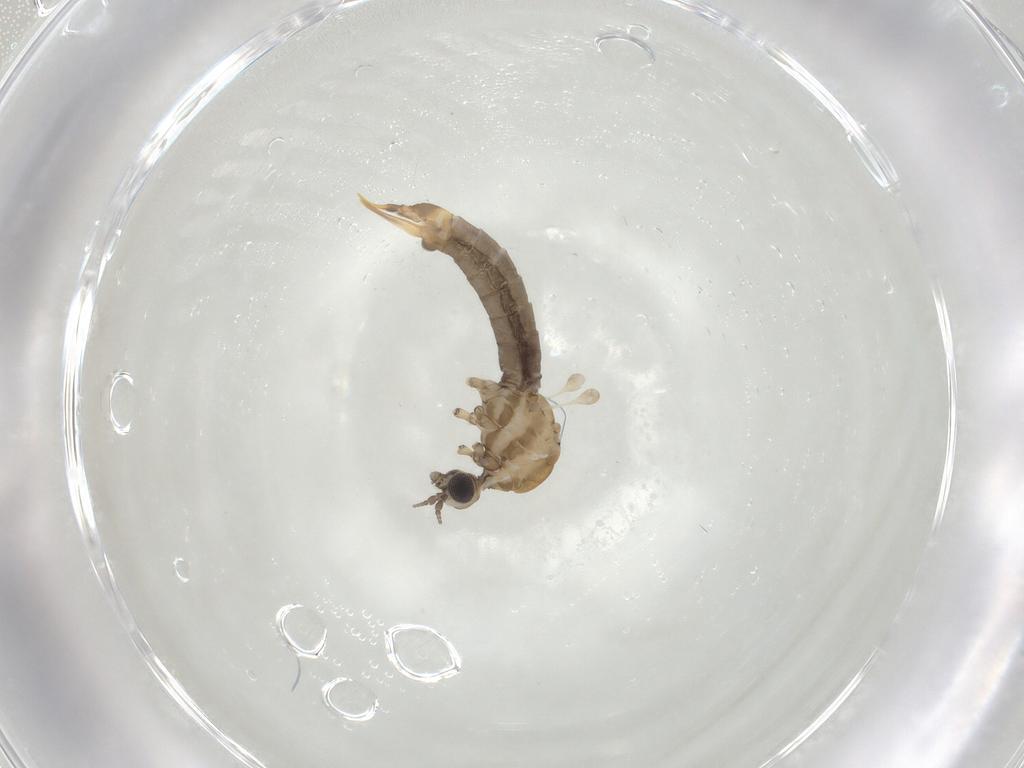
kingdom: Animalia
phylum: Arthropoda
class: Insecta
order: Diptera
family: Limoniidae
